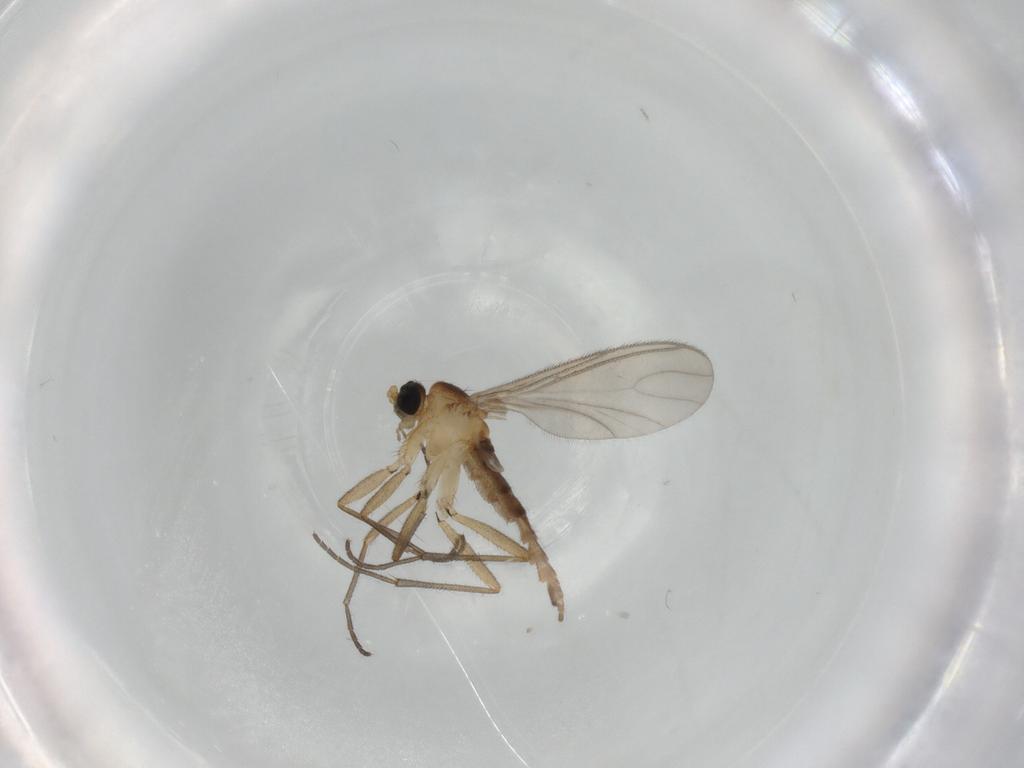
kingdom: Animalia
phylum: Arthropoda
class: Insecta
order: Diptera
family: Sciaridae
